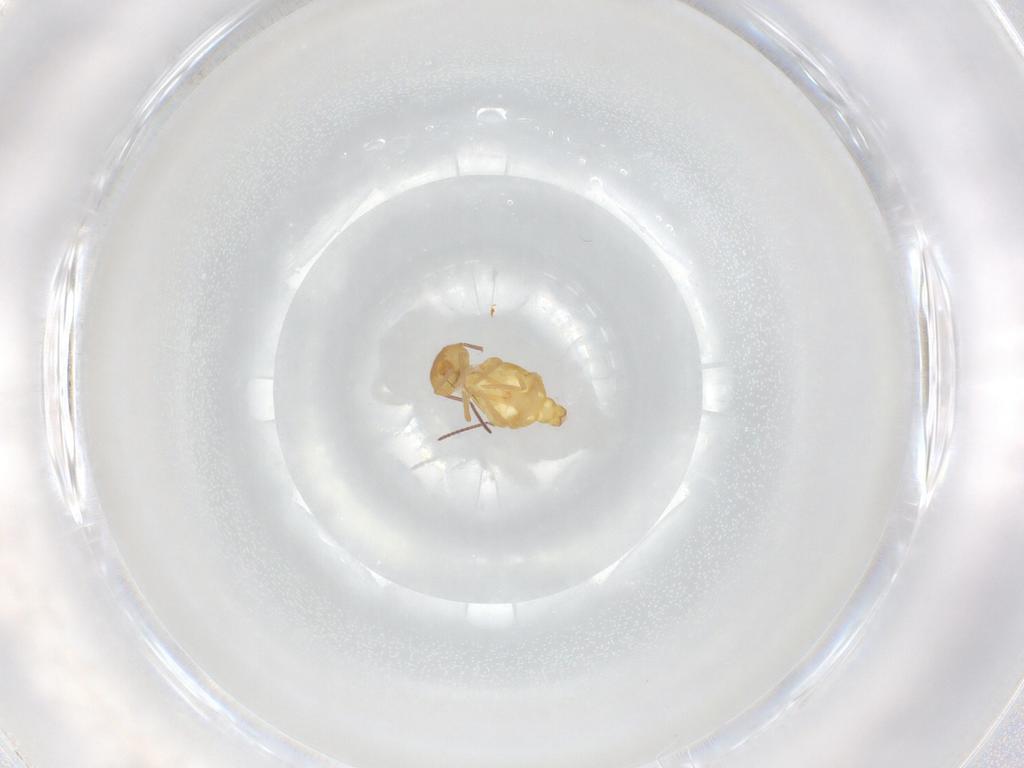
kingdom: Animalia
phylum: Arthropoda
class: Collembola
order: Symphypleona
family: Bourletiellidae
